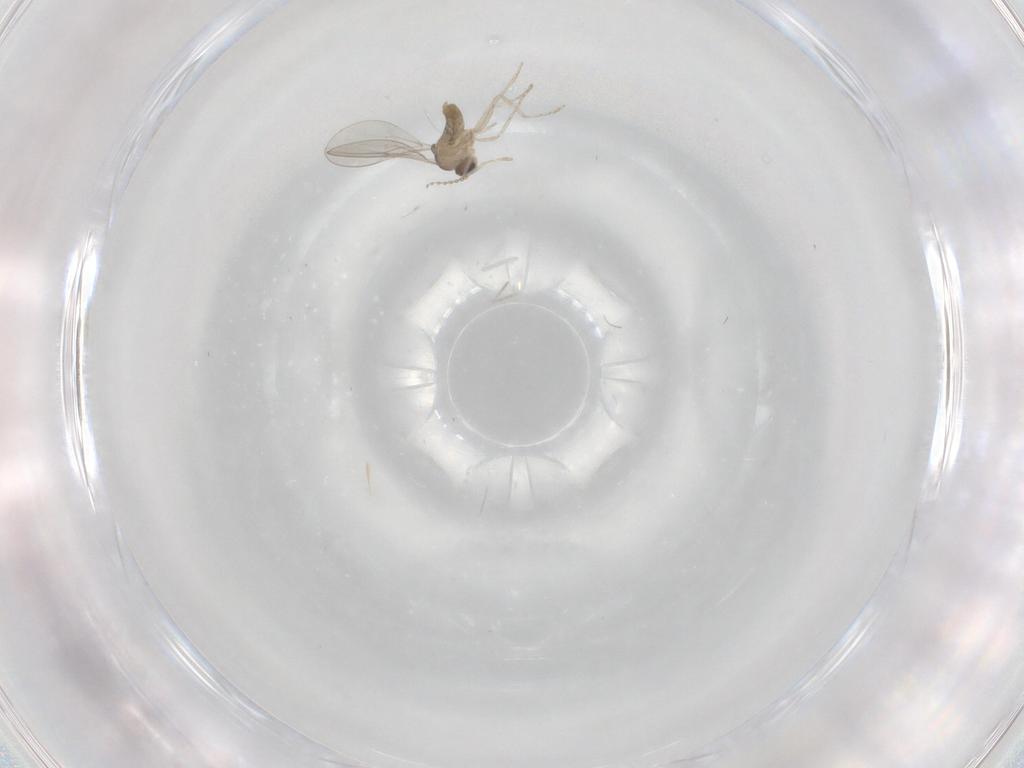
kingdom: Animalia
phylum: Arthropoda
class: Insecta
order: Diptera
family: Cecidomyiidae
